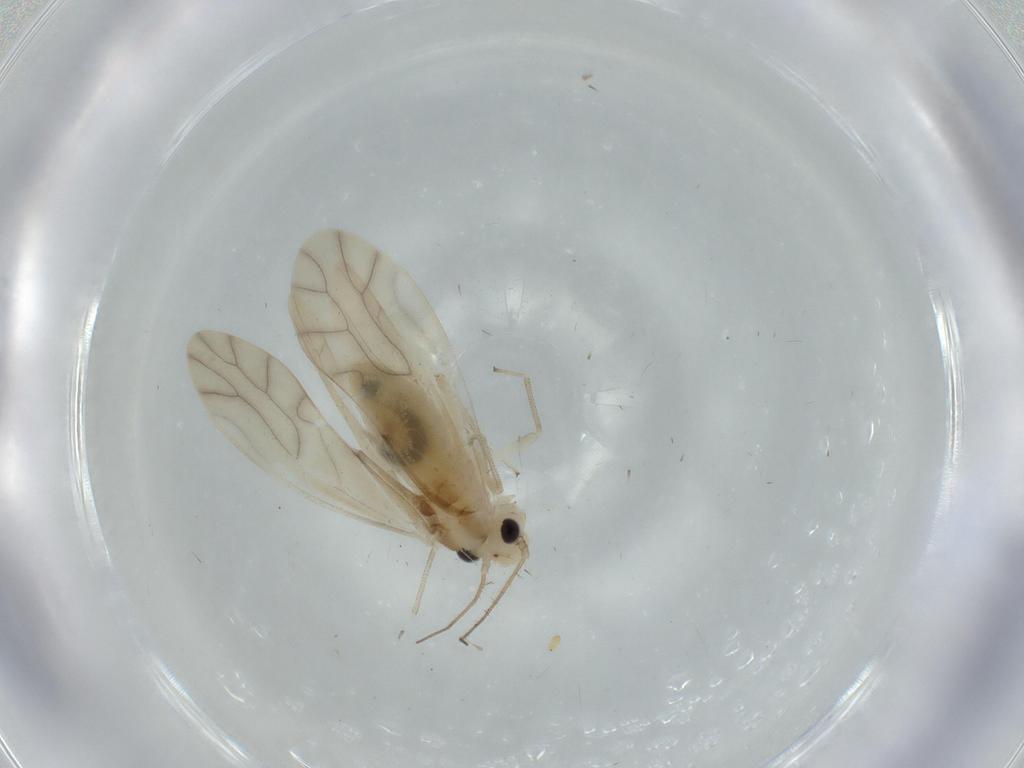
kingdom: Animalia
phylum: Arthropoda
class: Insecta
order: Psocodea
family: Caeciliusidae
